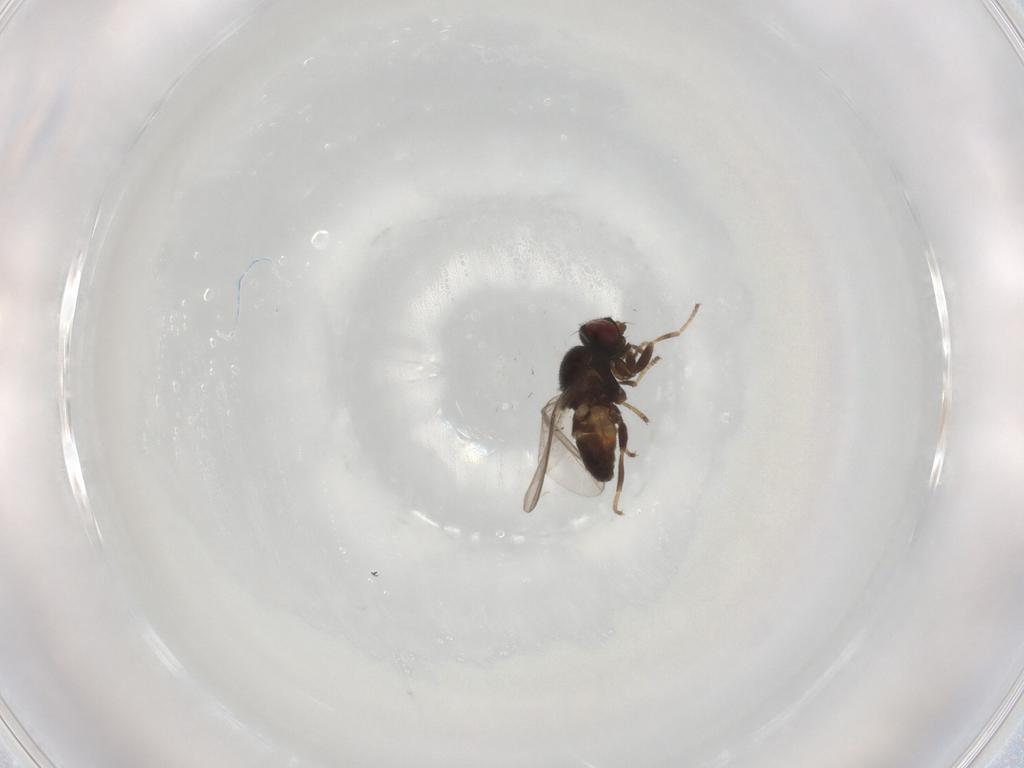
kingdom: Animalia
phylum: Arthropoda
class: Insecta
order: Diptera
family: Chloropidae
